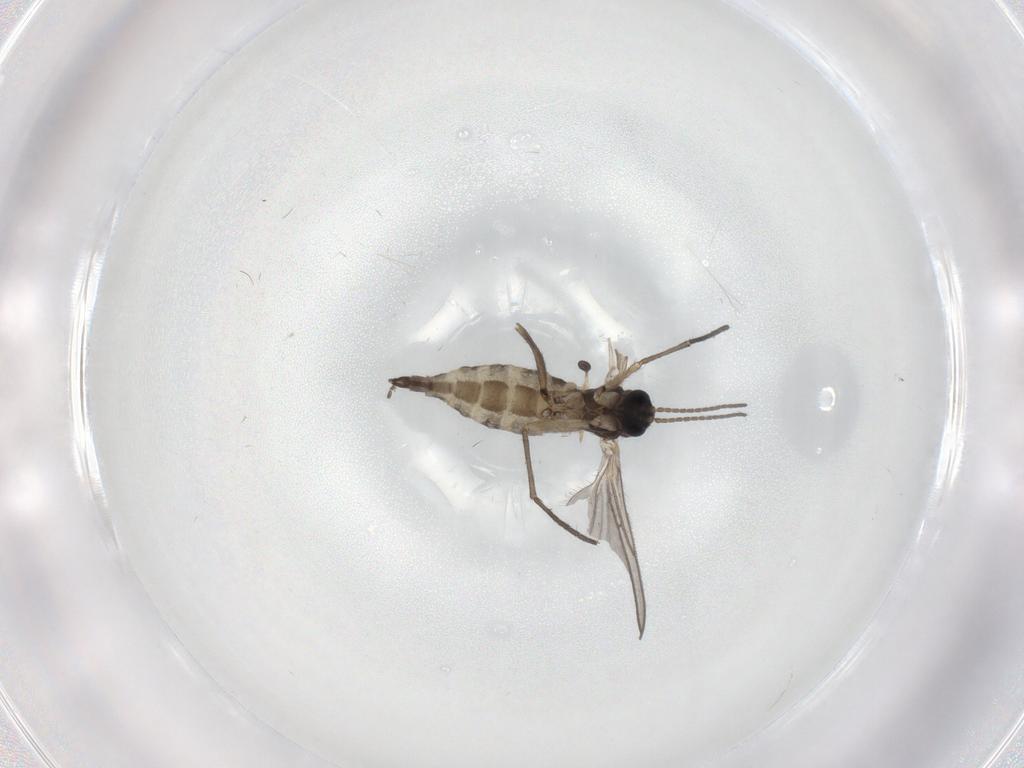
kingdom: Animalia
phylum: Arthropoda
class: Insecta
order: Diptera
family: Sciaridae
